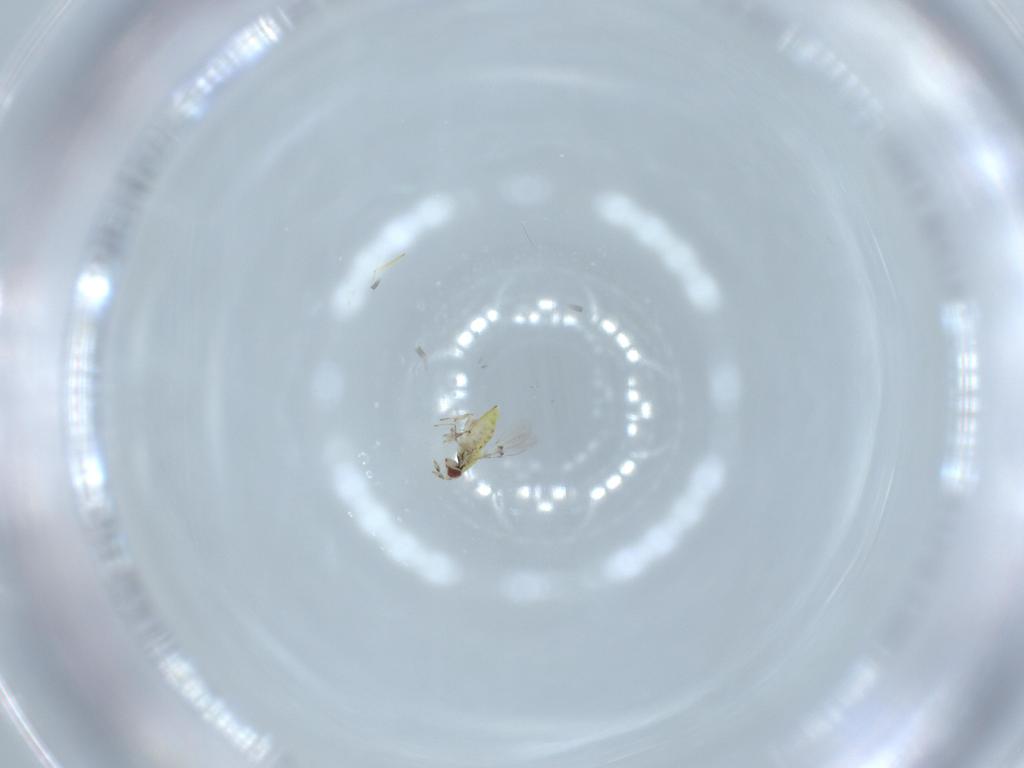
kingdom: Animalia
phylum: Arthropoda
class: Insecta
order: Hymenoptera
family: Trichogrammatidae
